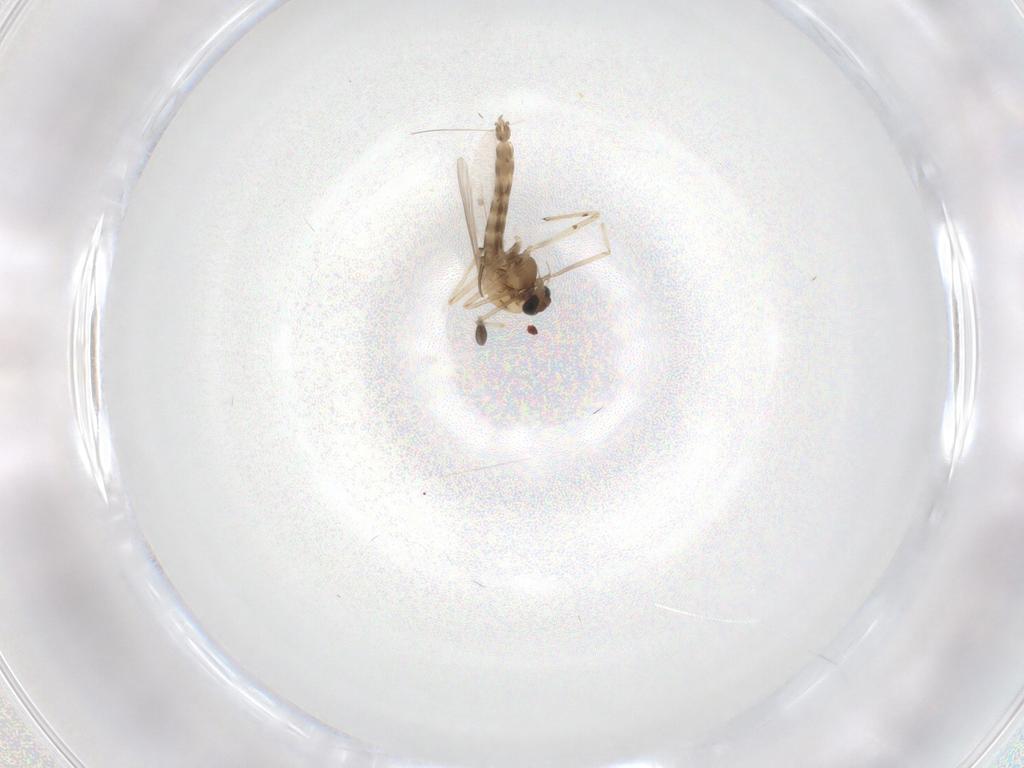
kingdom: Animalia
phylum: Arthropoda
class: Insecta
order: Diptera
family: Chironomidae
